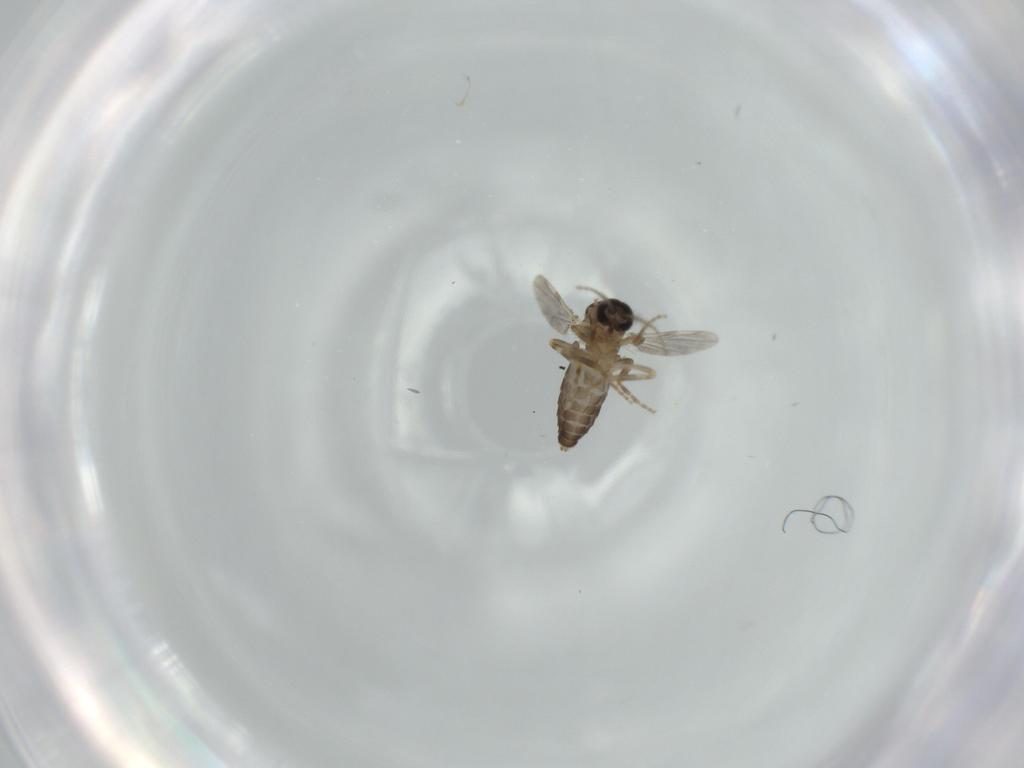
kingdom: Animalia
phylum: Arthropoda
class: Insecta
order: Diptera
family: Ceratopogonidae
